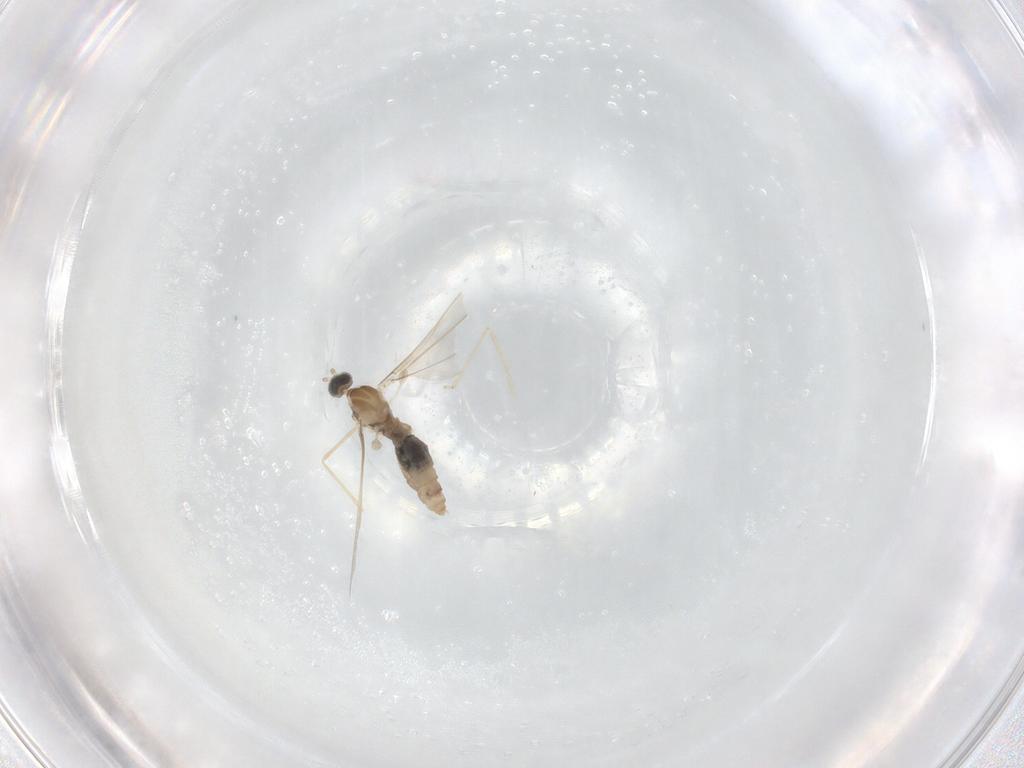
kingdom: Animalia
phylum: Arthropoda
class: Insecta
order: Diptera
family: Cecidomyiidae
